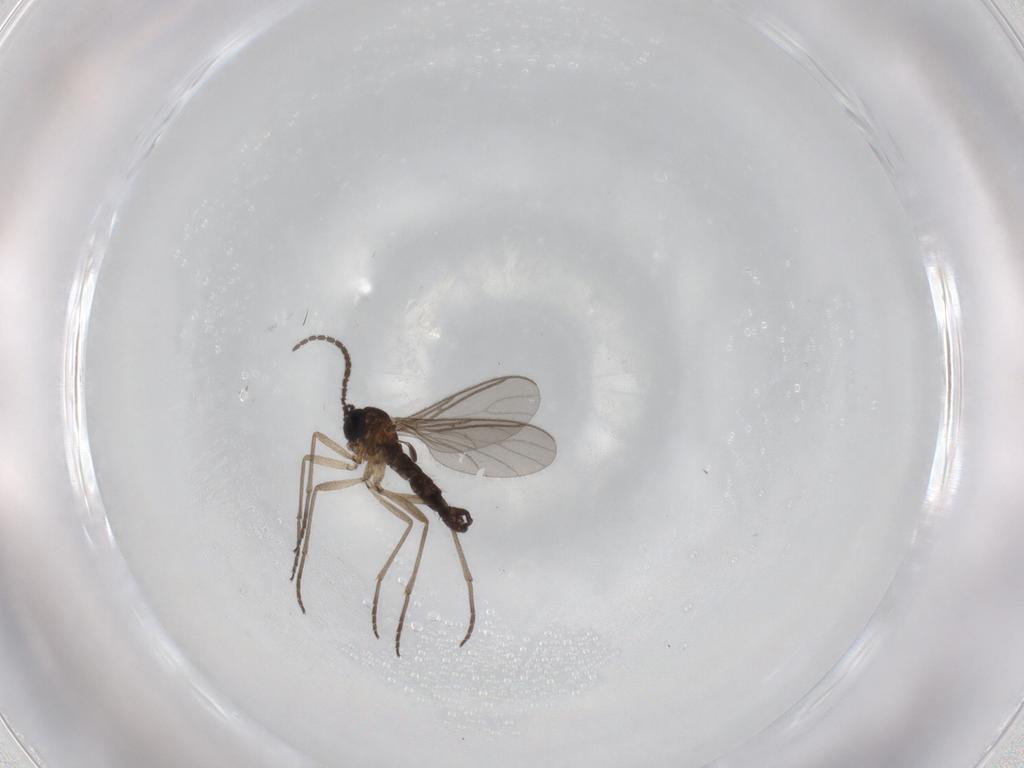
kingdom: Animalia
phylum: Arthropoda
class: Insecta
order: Diptera
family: Sciaridae
